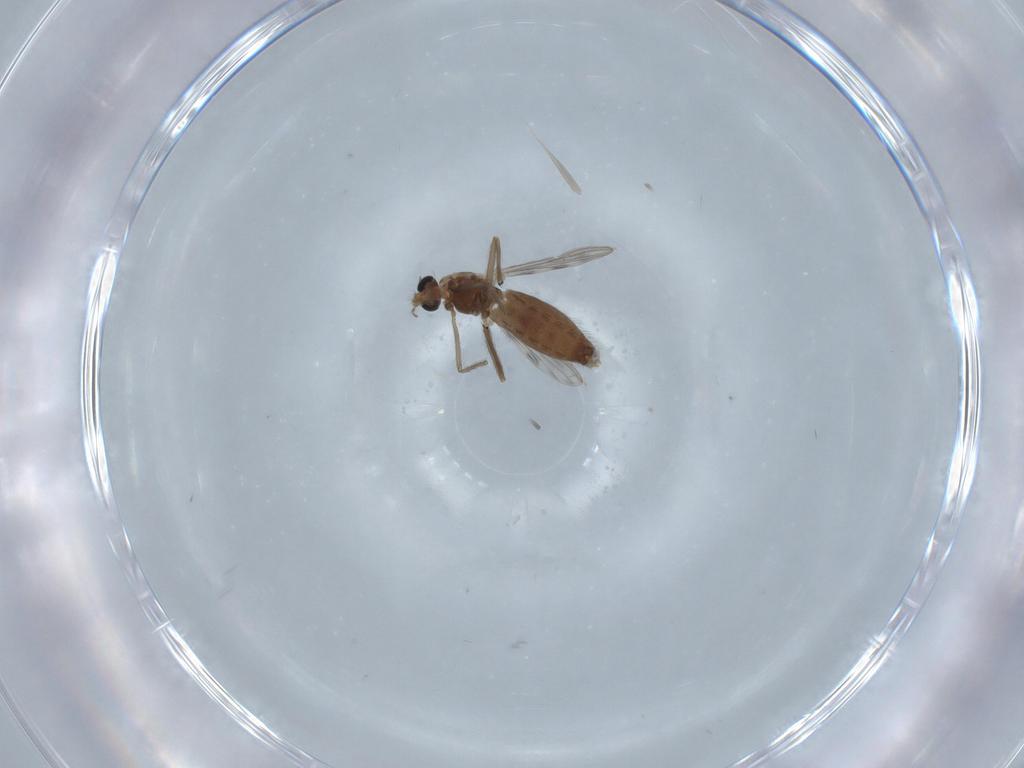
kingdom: Animalia
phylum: Arthropoda
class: Insecta
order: Diptera
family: Chironomidae
